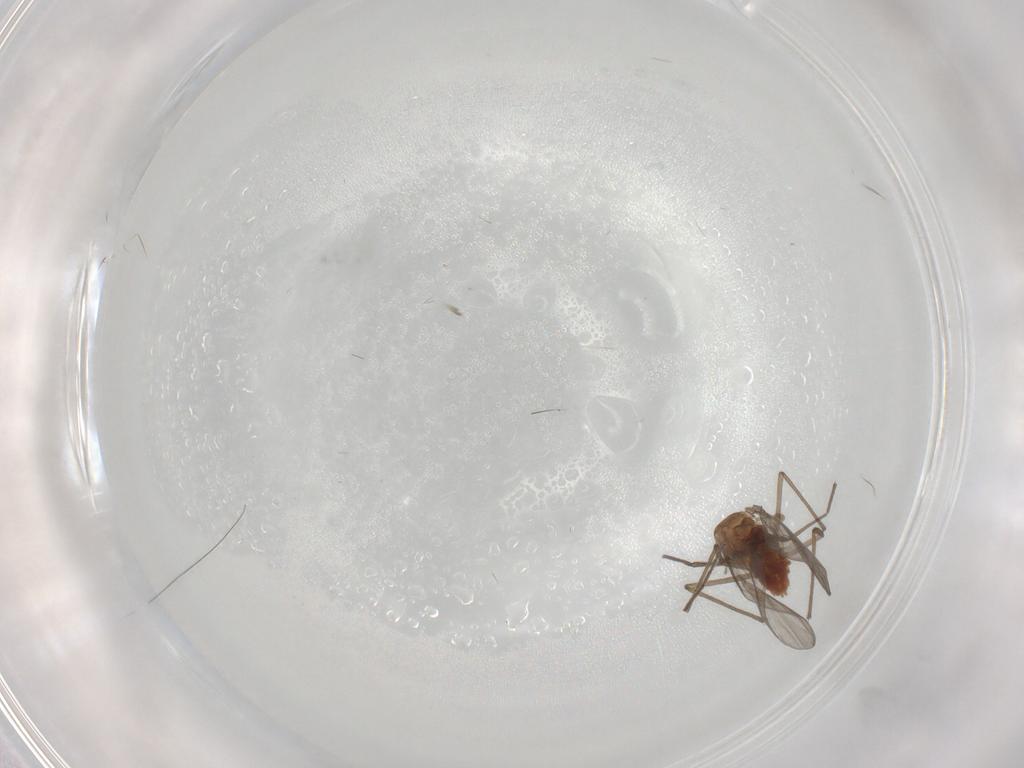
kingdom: Animalia
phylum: Arthropoda
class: Insecta
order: Diptera
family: Chironomidae
